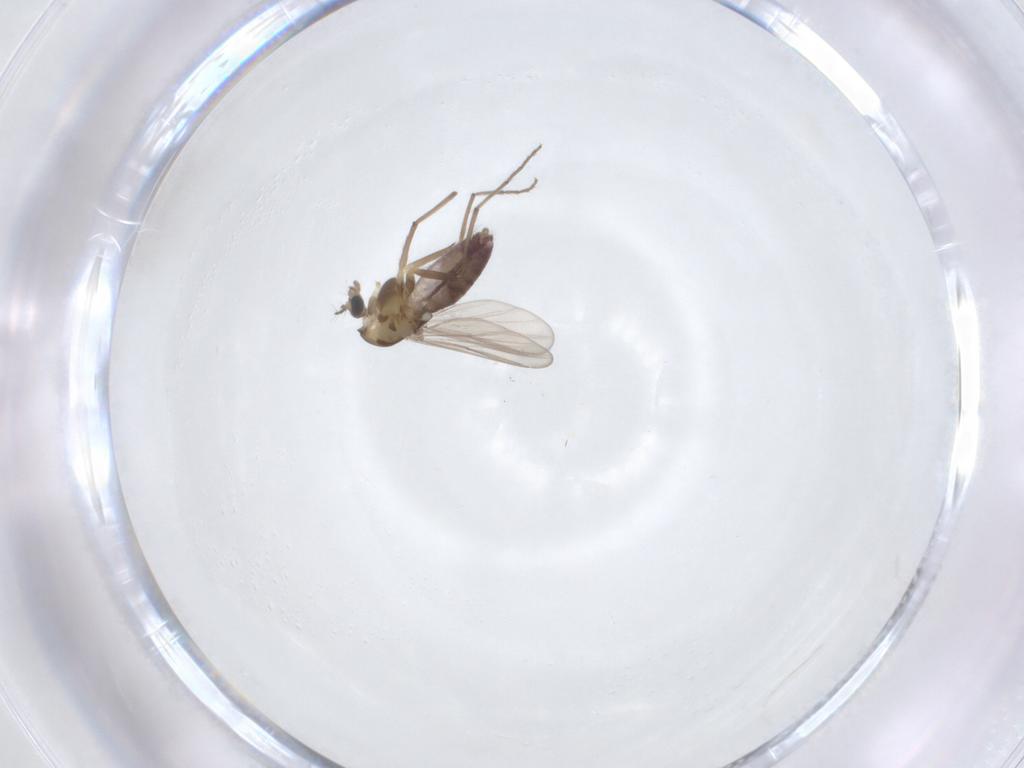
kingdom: Animalia
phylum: Arthropoda
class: Insecta
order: Diptera
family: Chironomidae
